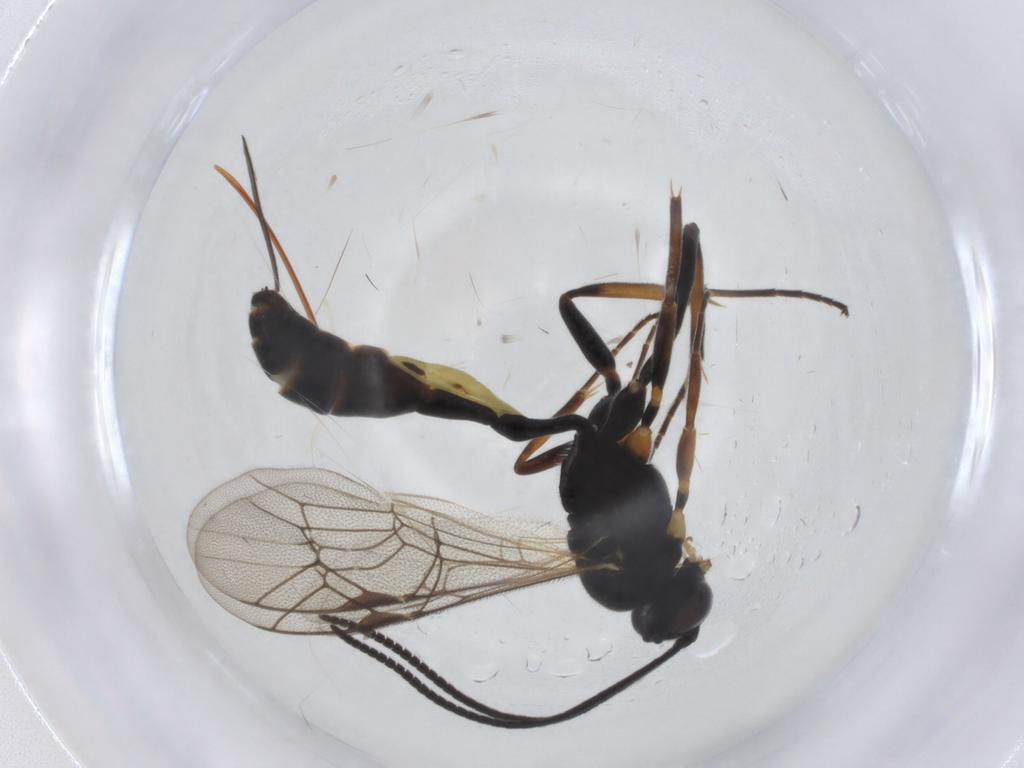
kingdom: Animalia
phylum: Arthropoda
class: Insecta
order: Hymenoptera
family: Ichneumonidae
